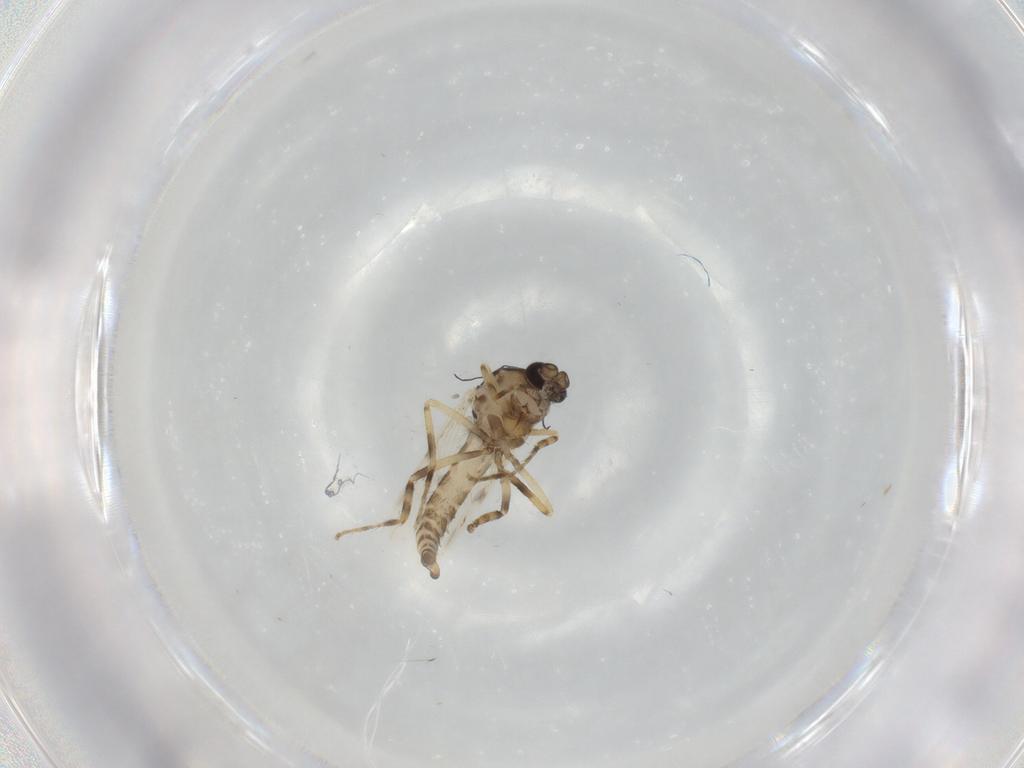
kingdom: Animalia
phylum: Arthropoda
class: Insecta
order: Diptera
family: Ceratopogonidae
